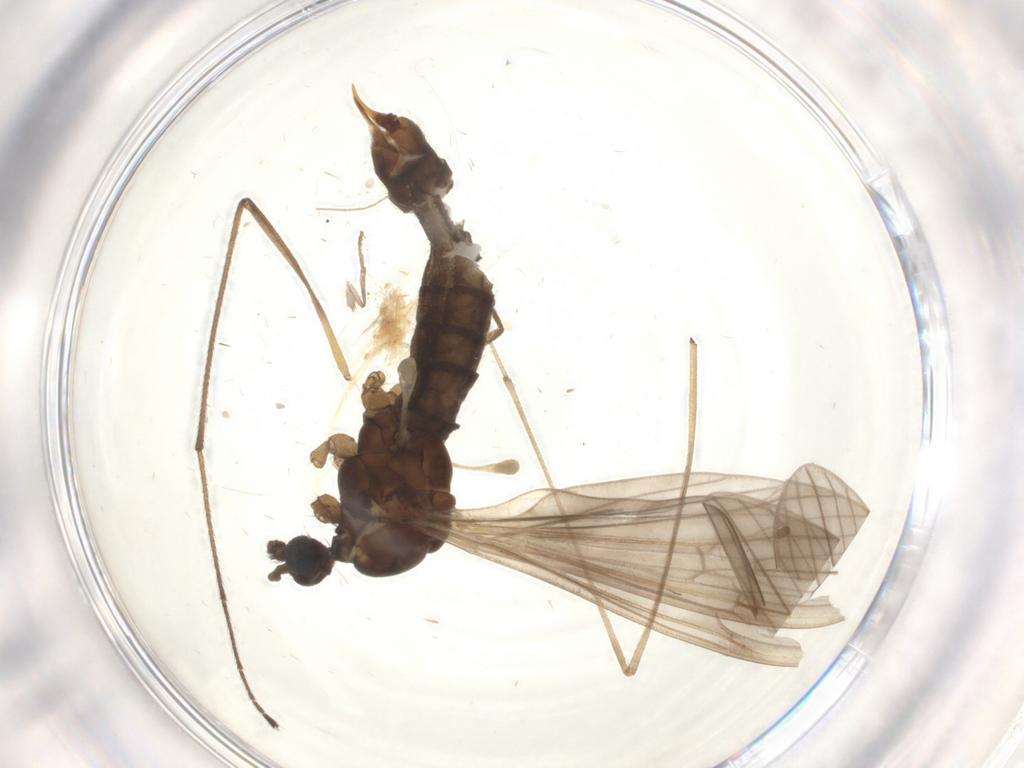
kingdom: Animalia
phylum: Arthropoda
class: Insecta
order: Diptera
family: Limoniidae
